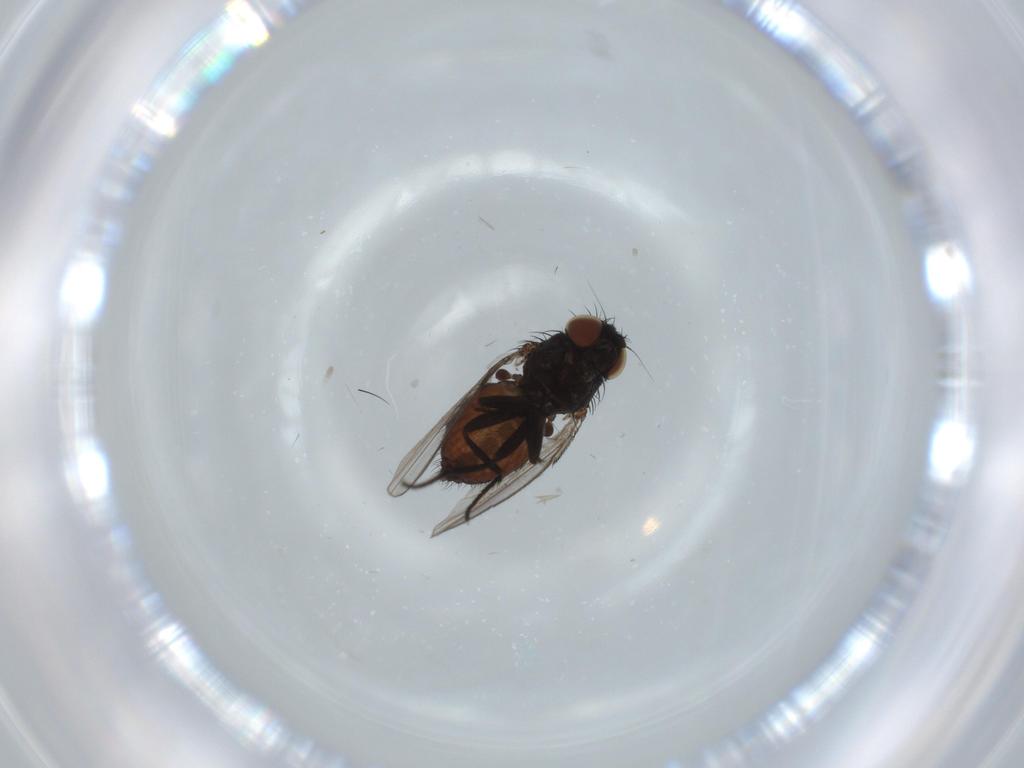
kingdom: Animalia
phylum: Arthropoda
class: Insecta
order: Diptera
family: Milichiidae
